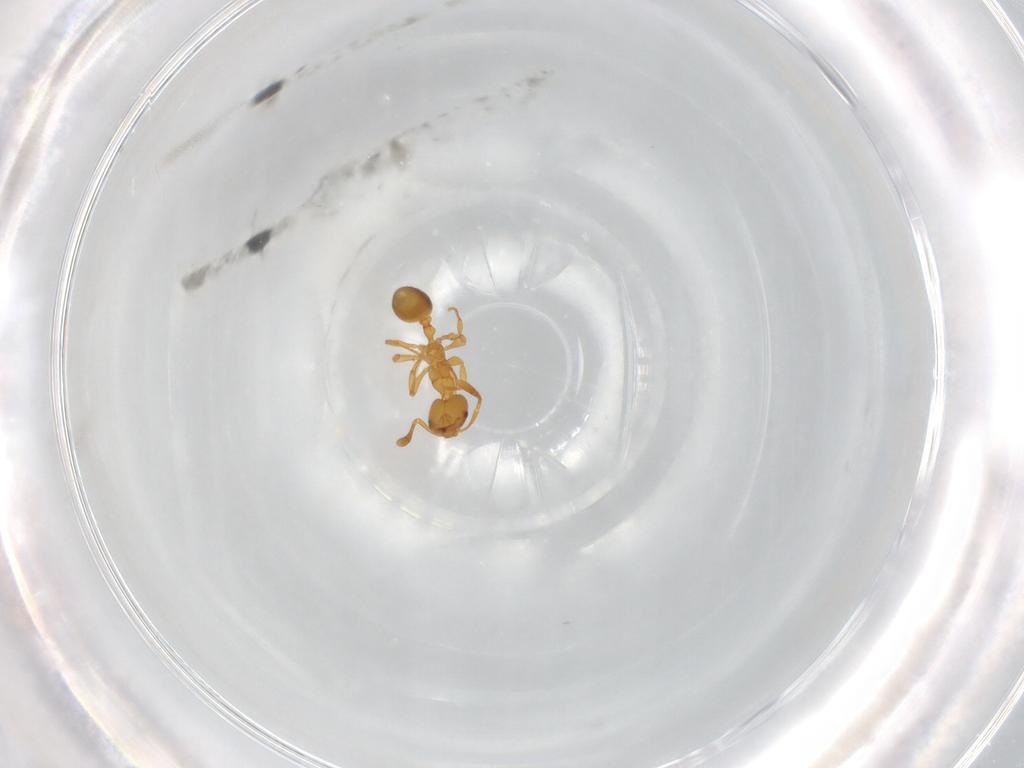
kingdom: Animalia
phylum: Arthropoda
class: Insecta
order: Hymenoptera
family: Formicidae
